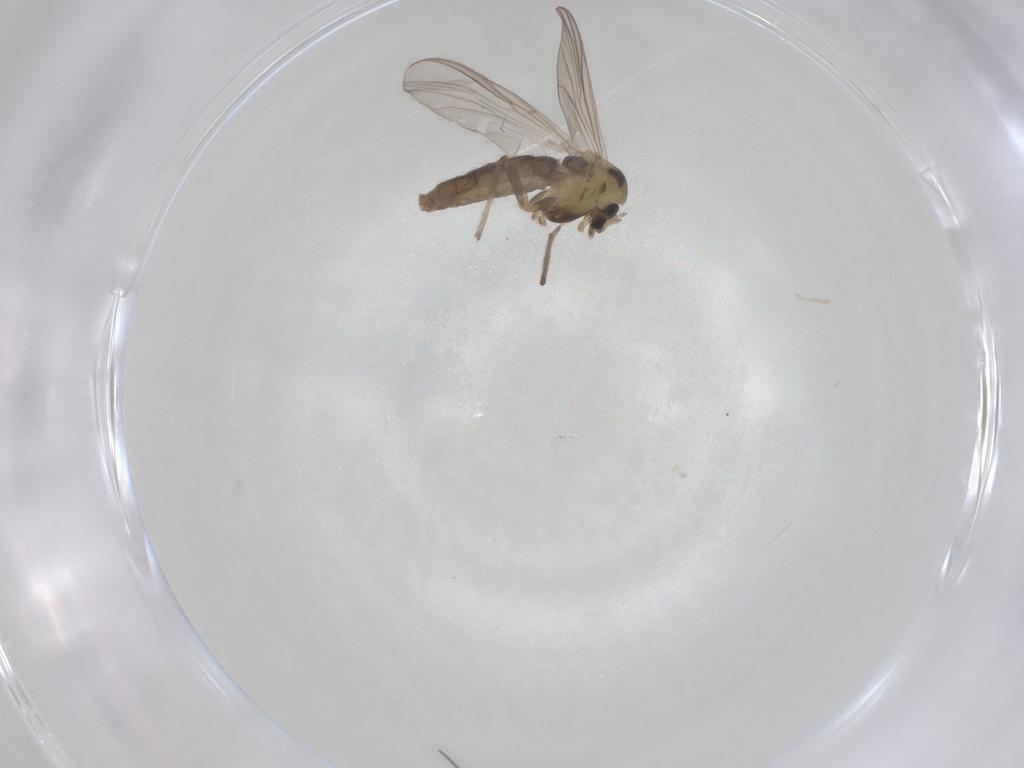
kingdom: Animalia
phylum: Arthropoda
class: Insecta
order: Diptera
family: Chironomidae
